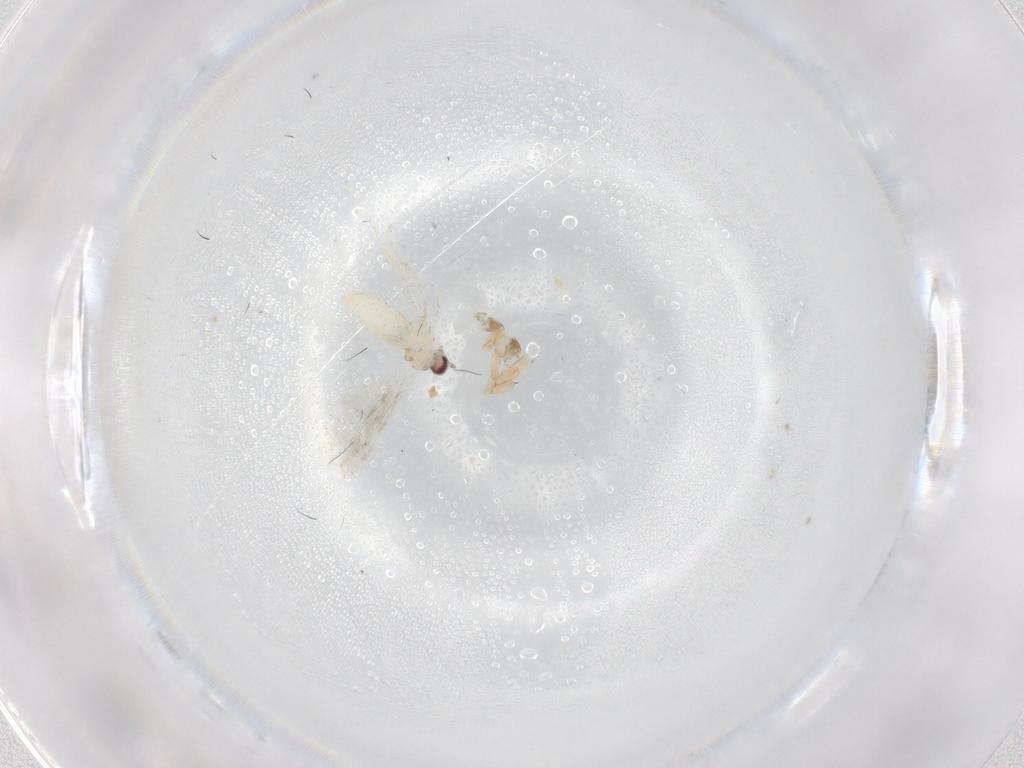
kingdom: Animalia
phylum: Arthropoda
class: Insecta
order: Diptera
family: Cecidomyiidae
